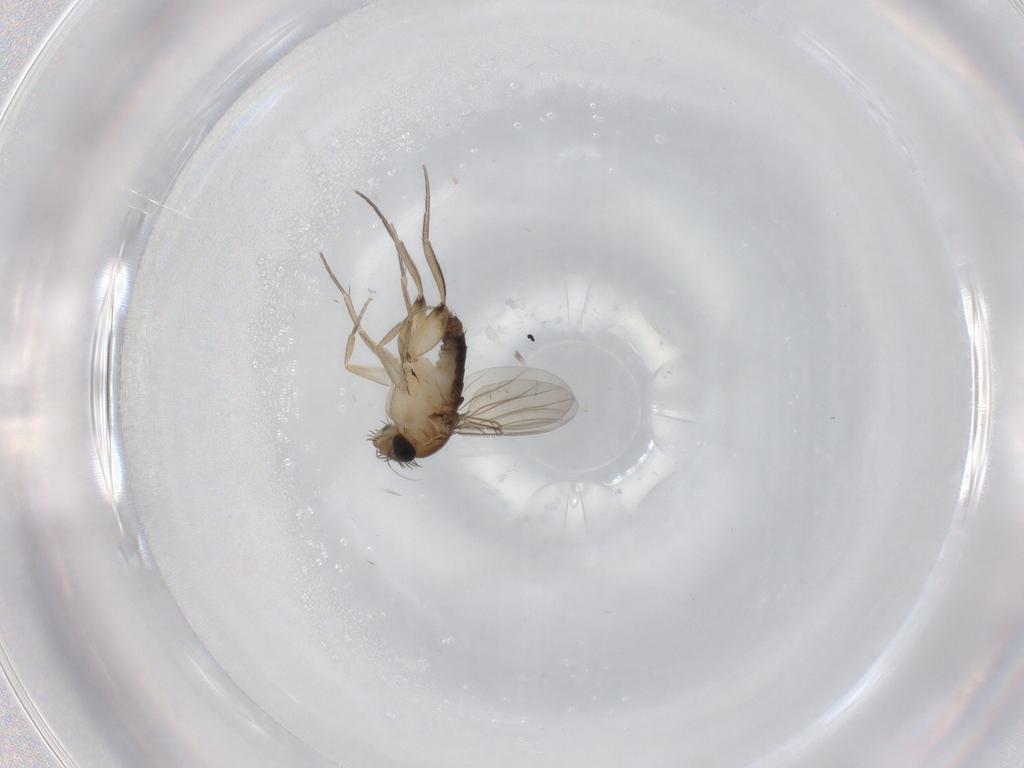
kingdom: Animalia
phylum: Arthropoda
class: Insecta
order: Diptera
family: Phoridae
